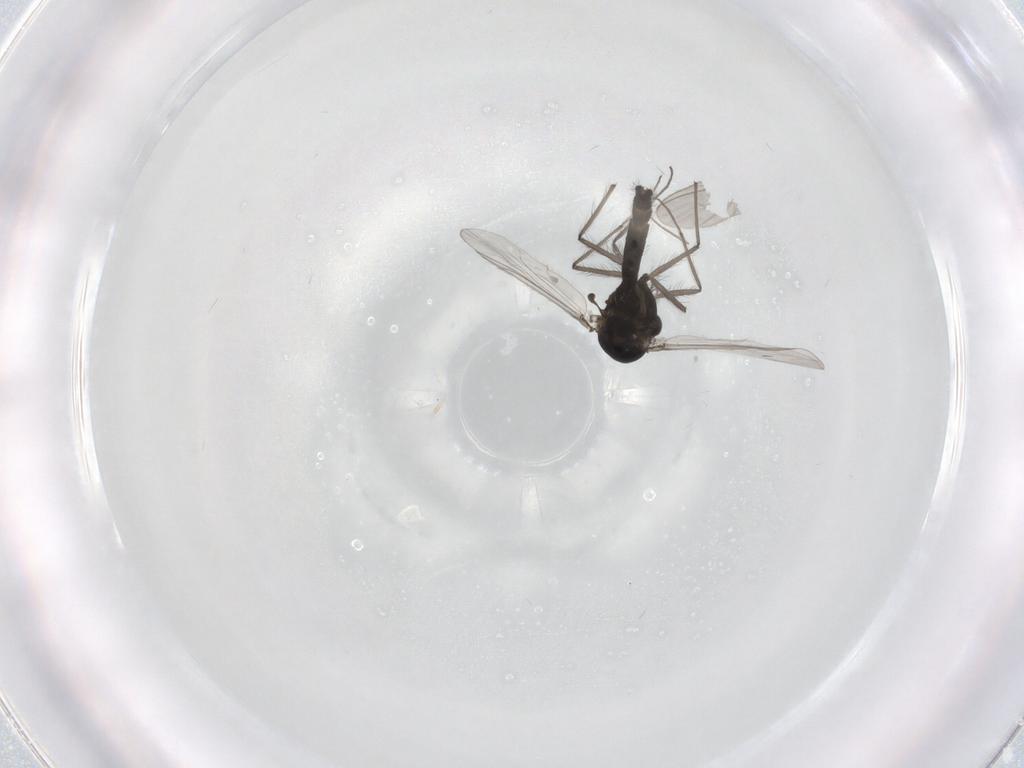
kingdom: Animalia
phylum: Arthropoda
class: Insecta
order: Diptera
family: Chironomidae
